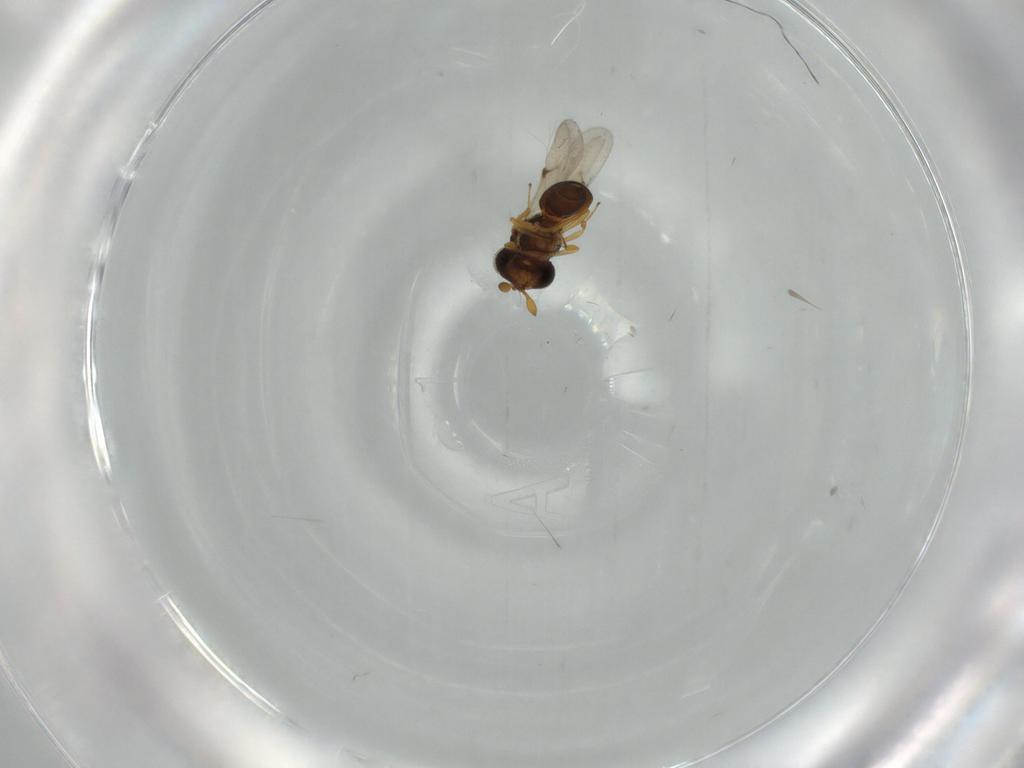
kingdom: Animalia
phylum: Arthropoda
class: Insecta
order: Hymenoptera
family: Scelionidae
